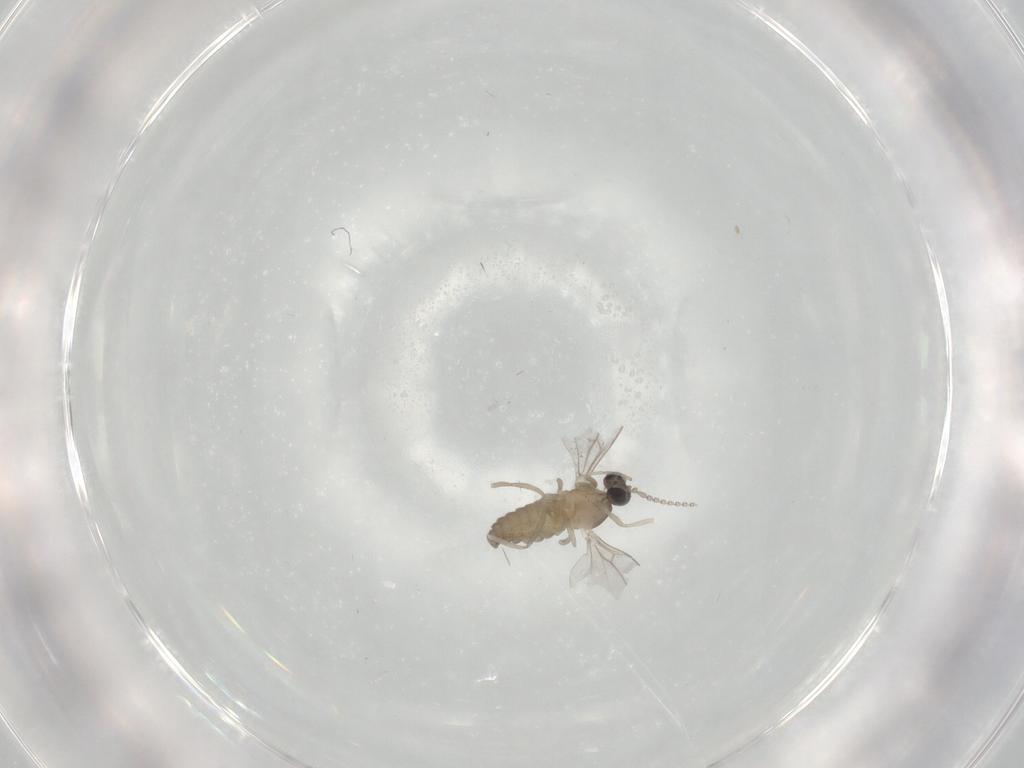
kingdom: Animalia
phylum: Arthropoda
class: Insecta
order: Diptera
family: Cecidomyiidae
